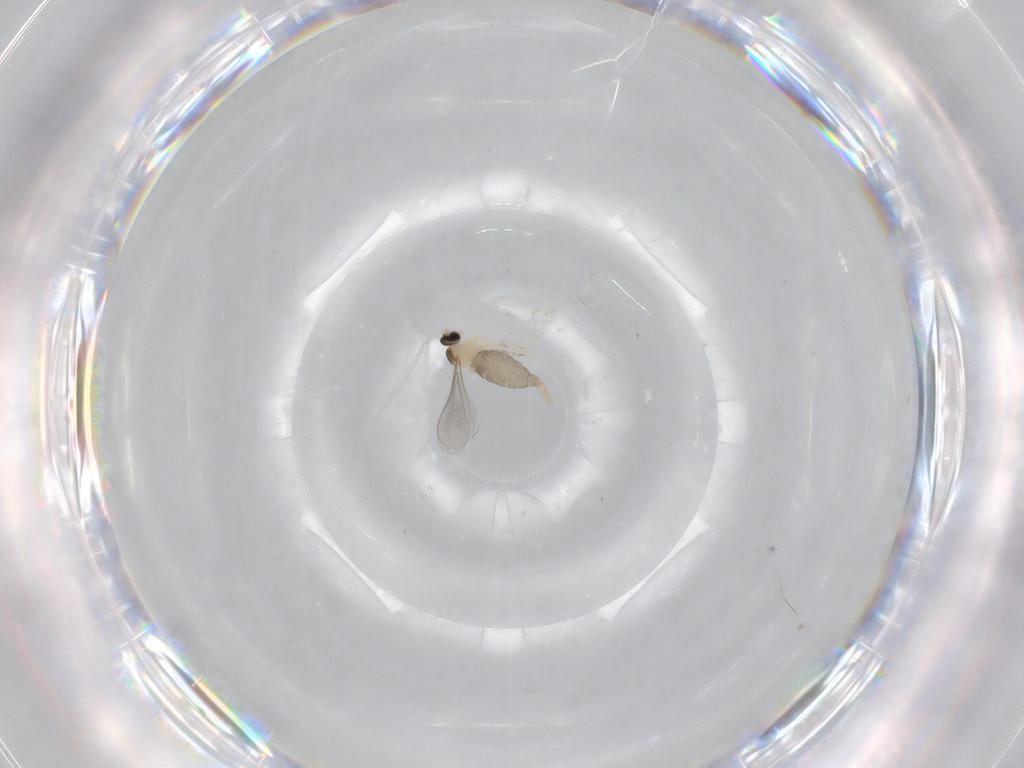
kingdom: Animalia
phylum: Arthropoda
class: Insecta
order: Diptera
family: Cecidomyiidae
